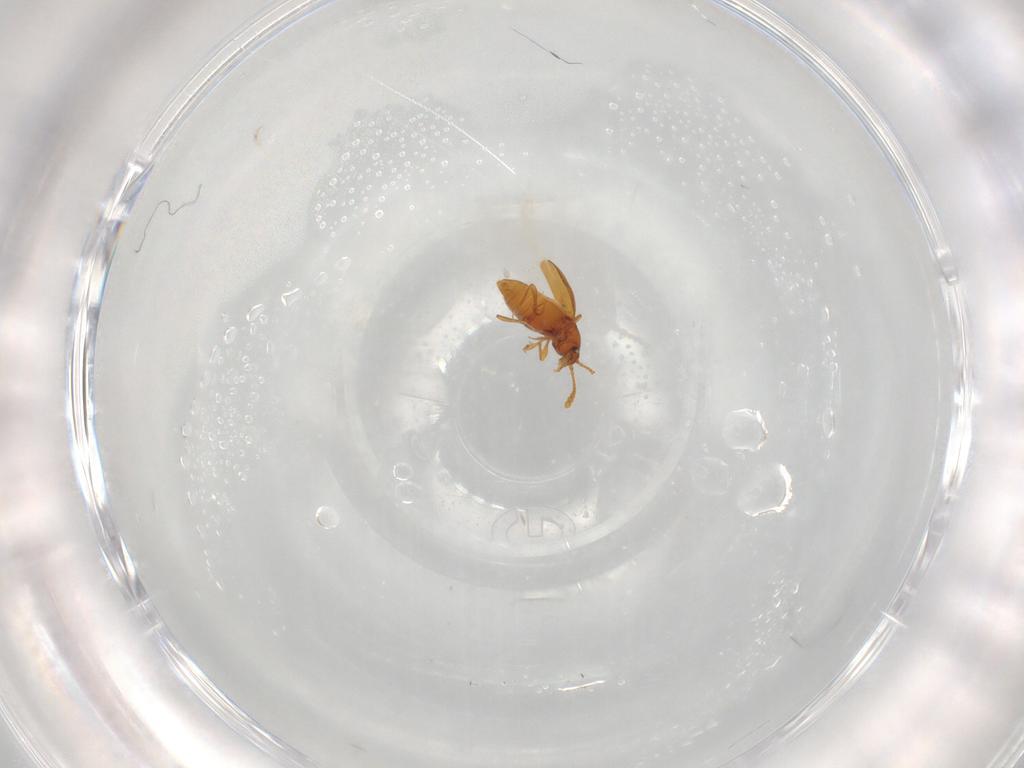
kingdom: Animalia
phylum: Arthropoda
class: Insecta
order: Coleoptera
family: Staphylinidae
